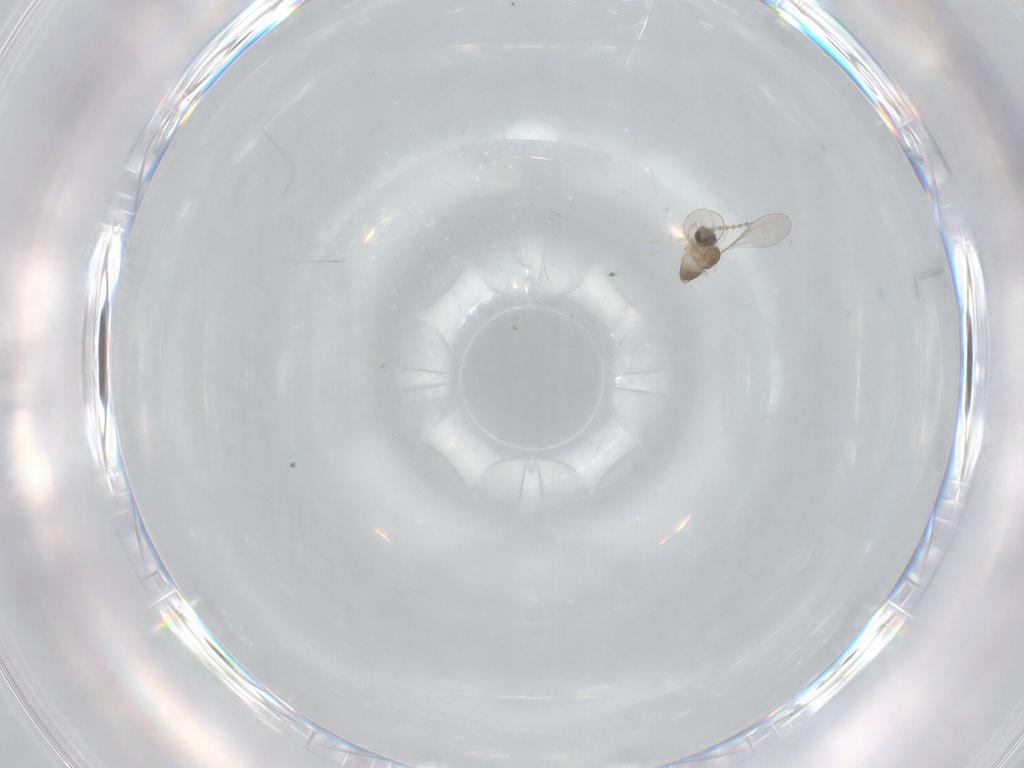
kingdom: Animalia
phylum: Arthropoda
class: Insecta
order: Diptera
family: Cecidomyiidae
